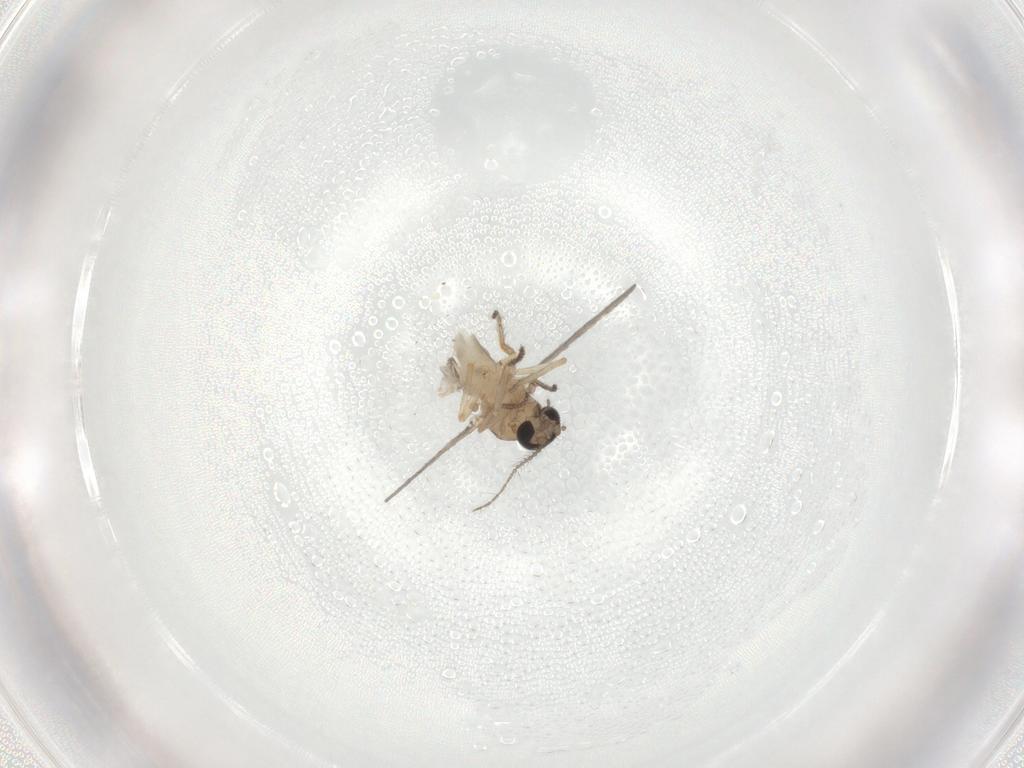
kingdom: Animalia
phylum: Arthropoda
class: Insecta
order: Diptera
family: Ceratopogonidae
